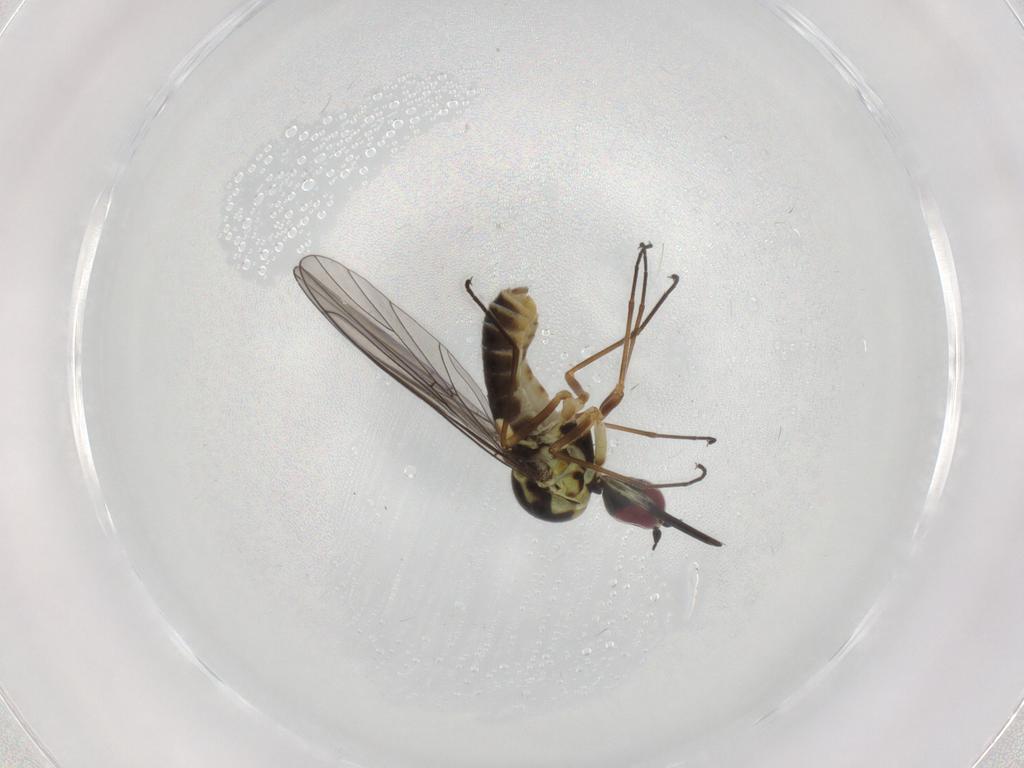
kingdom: Animalia
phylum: Arthropoda
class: Insecta
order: Diptera
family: Bombyliidae
